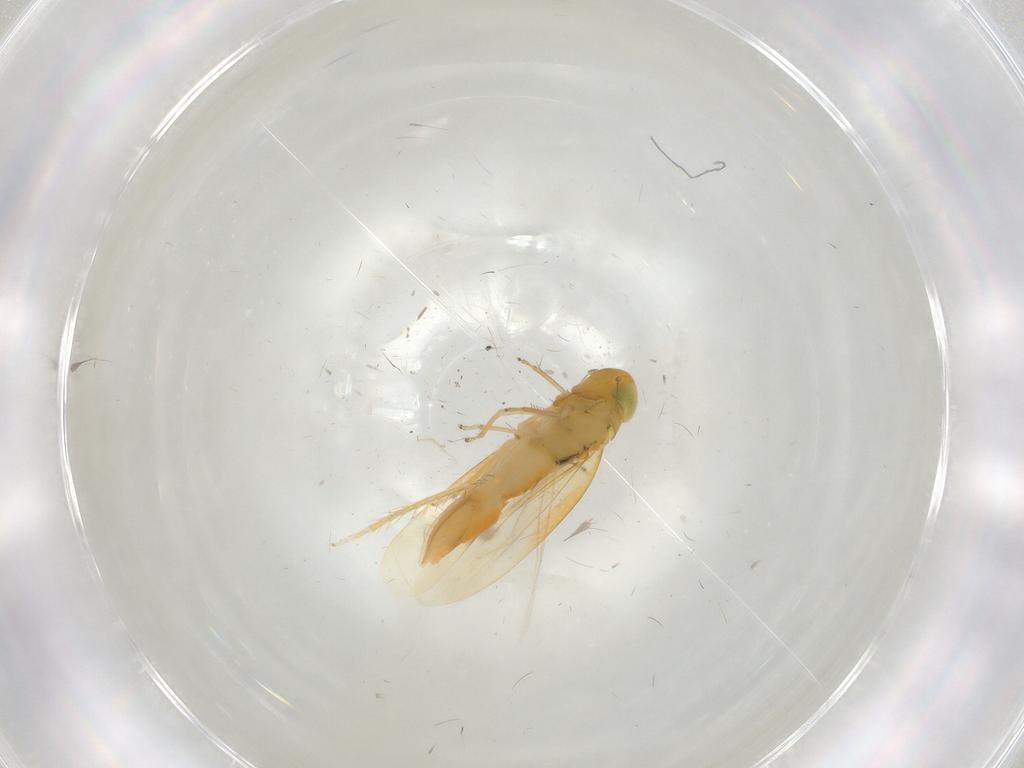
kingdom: Animalia
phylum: Arthropoda
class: Insecta
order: Hemiptera
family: Cicadellidae
